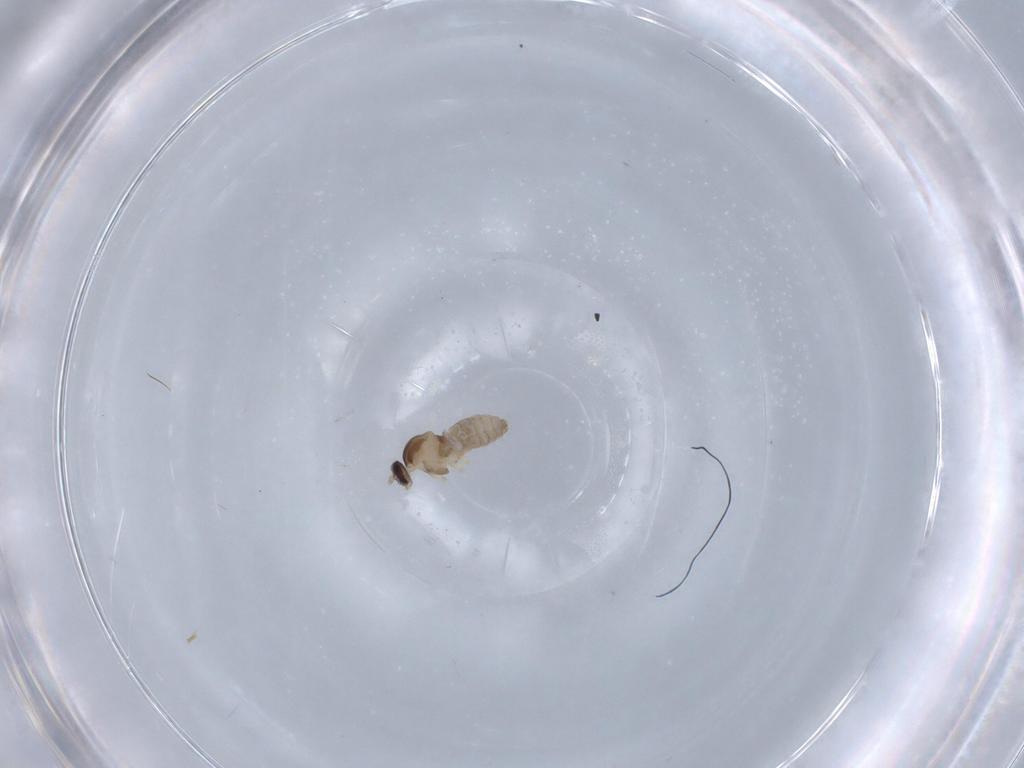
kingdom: Animalia
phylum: Arthropoda
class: Insecta
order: Diptera
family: Cecidomyiidae
